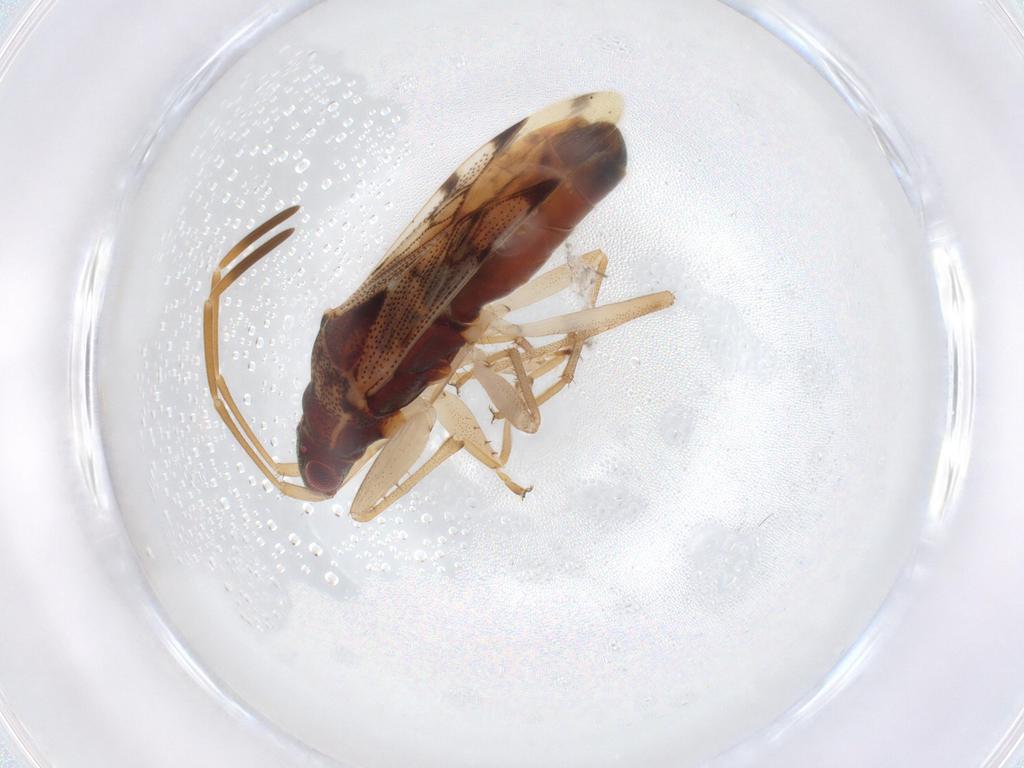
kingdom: Animalia
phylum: Arthropoda
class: Insecta
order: Hemiptera
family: Rhyparochromidae
